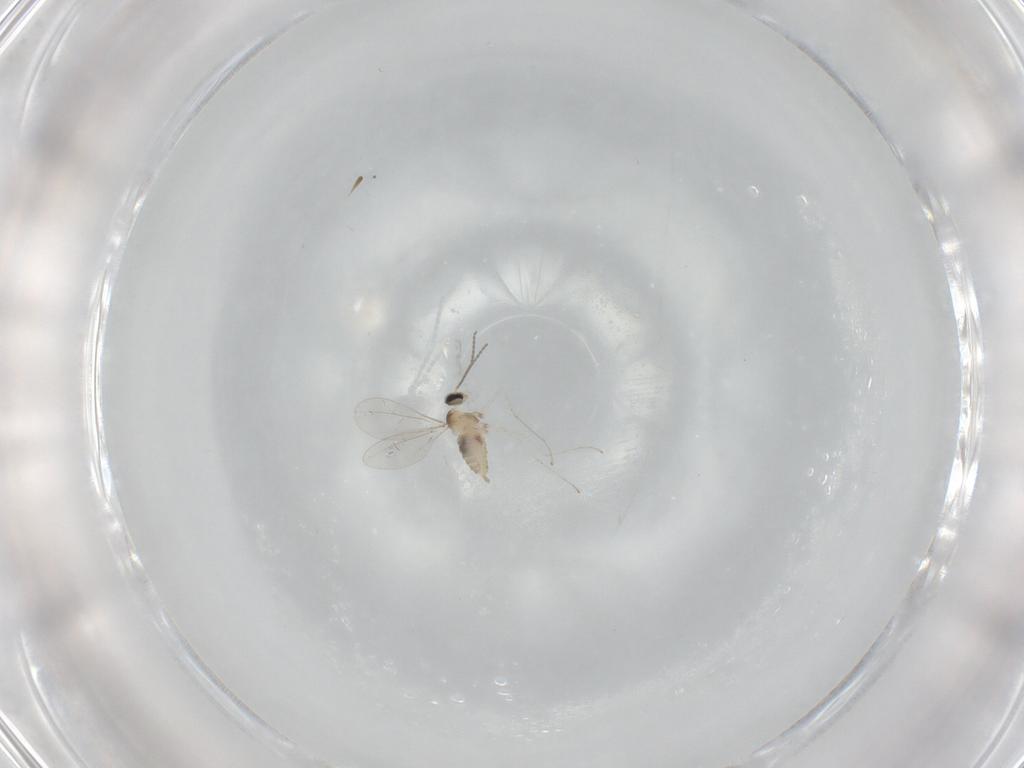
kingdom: Animalia
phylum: Arthropoda
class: Insecta
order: Diptera
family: Cecidomyiidae
